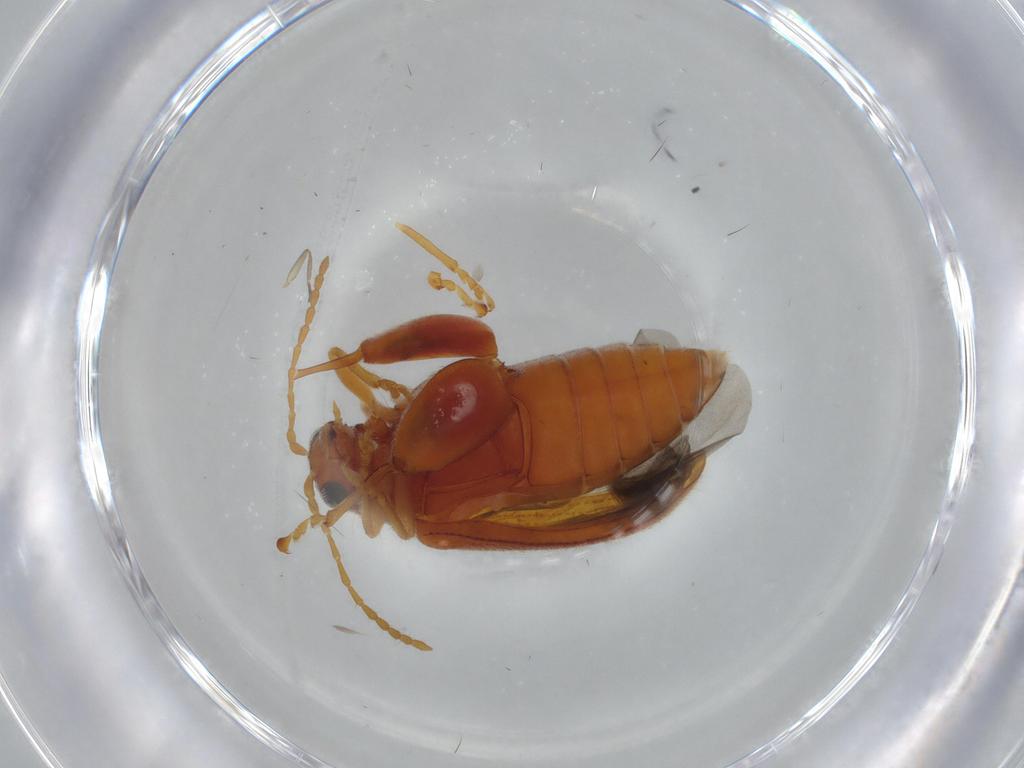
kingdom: Animalia
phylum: Arthropoda
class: Insecta
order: Coleoptera
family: Chrysomelidae
